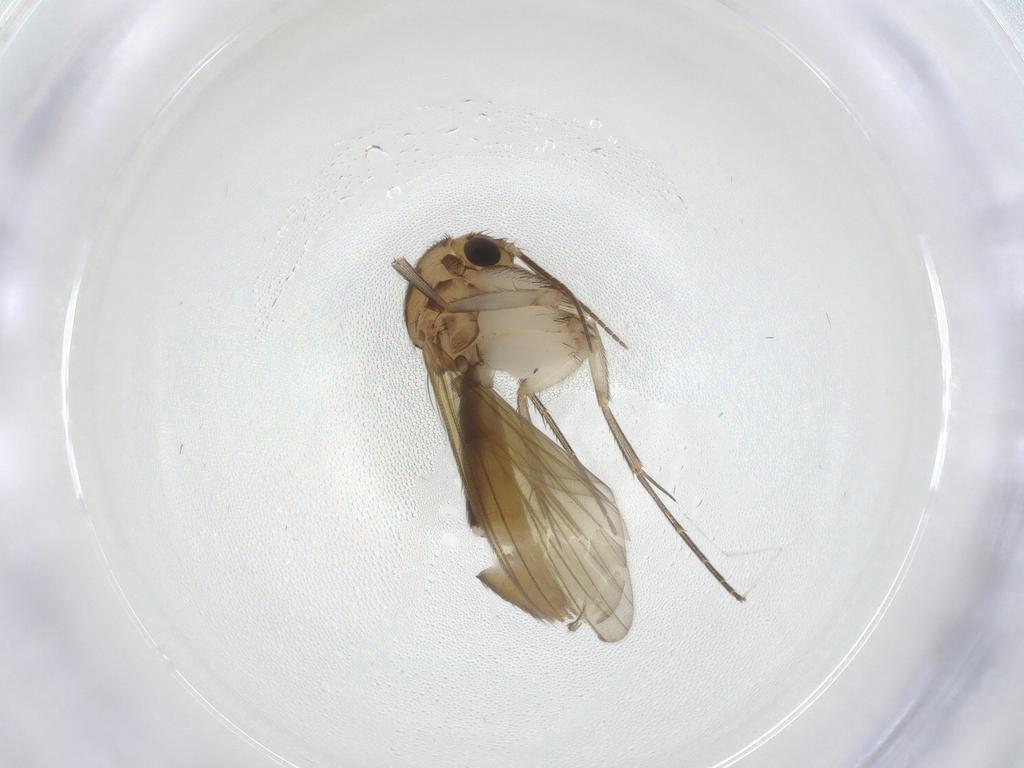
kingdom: Animalia
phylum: Arthropoda
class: Insecta
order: Diptera
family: Mycetophilidae
